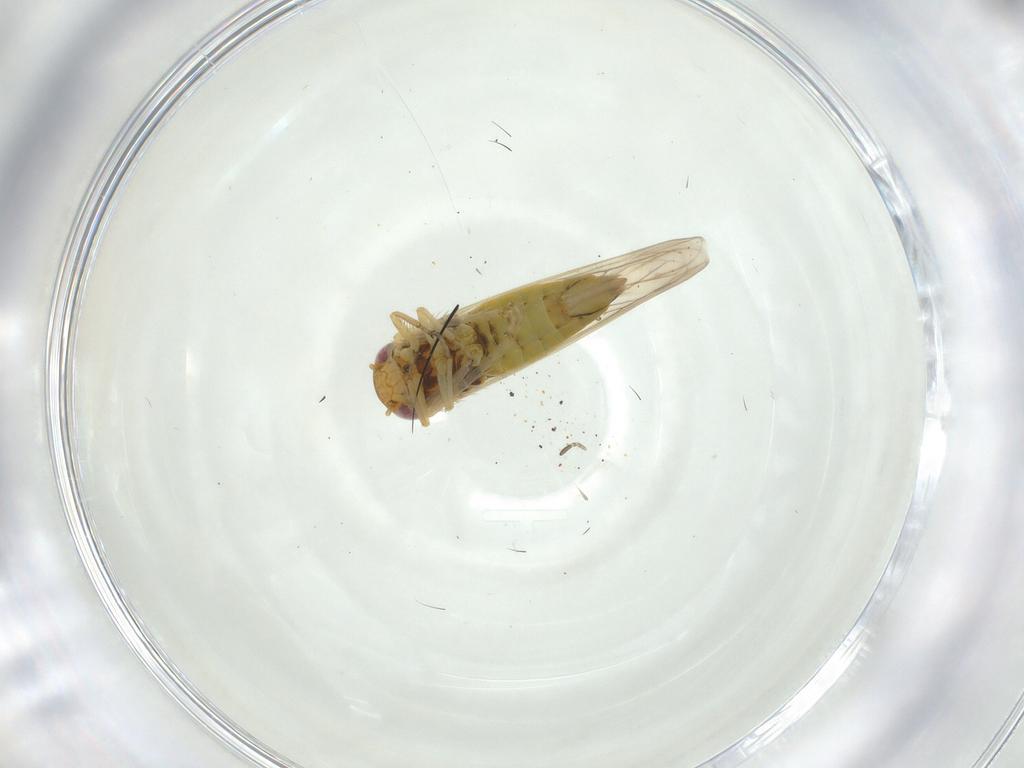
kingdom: Animalia
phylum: Arthropoda
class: Insecta
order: Hemiptera
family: Cicadellidae
